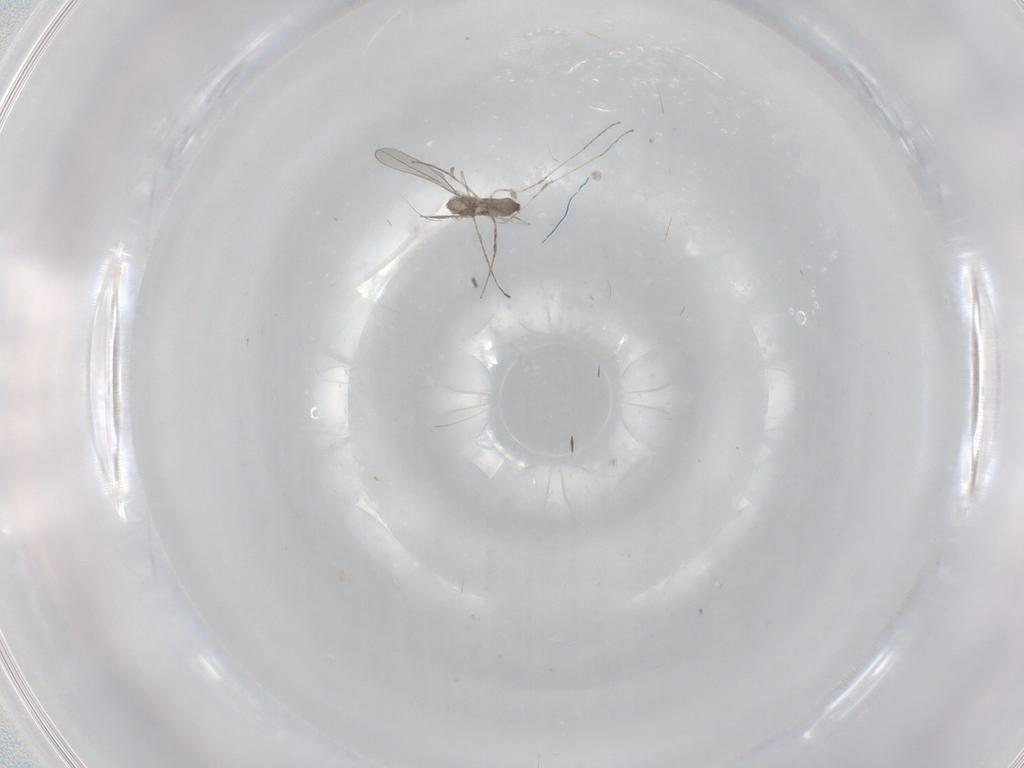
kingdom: Animalia
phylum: Arthropoda
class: Insecta
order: Diptera
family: Cecidomyiidae
